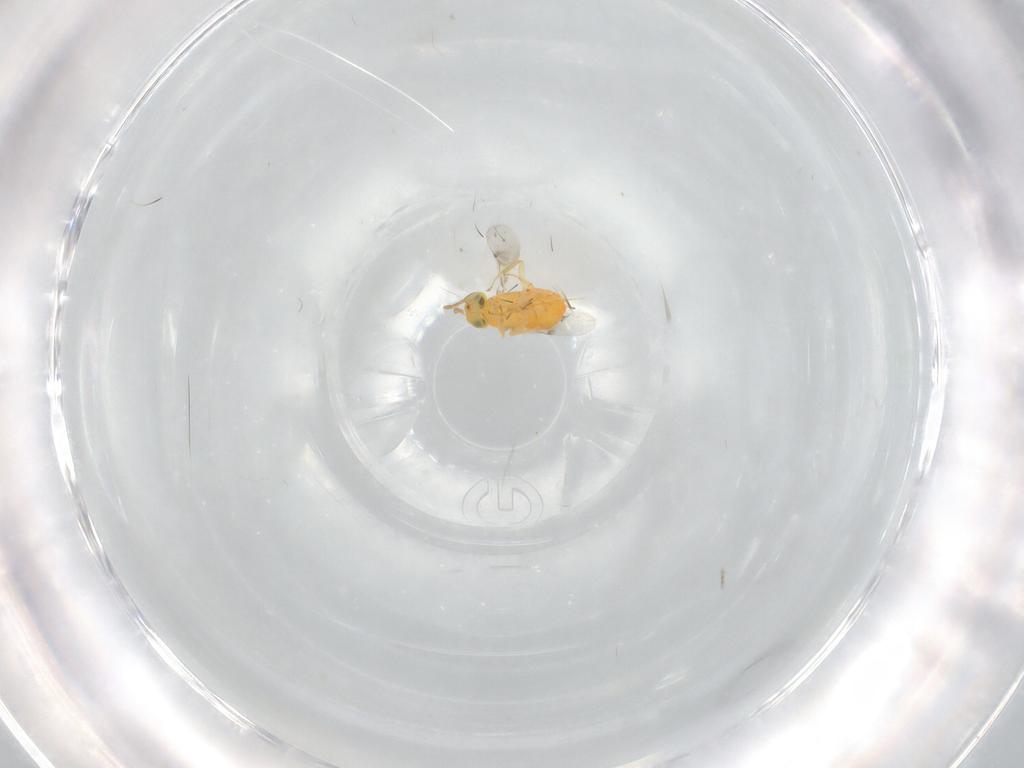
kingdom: Animalia
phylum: Arthropoda
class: Insecta
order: Hymenoptera
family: Encyrtidae
